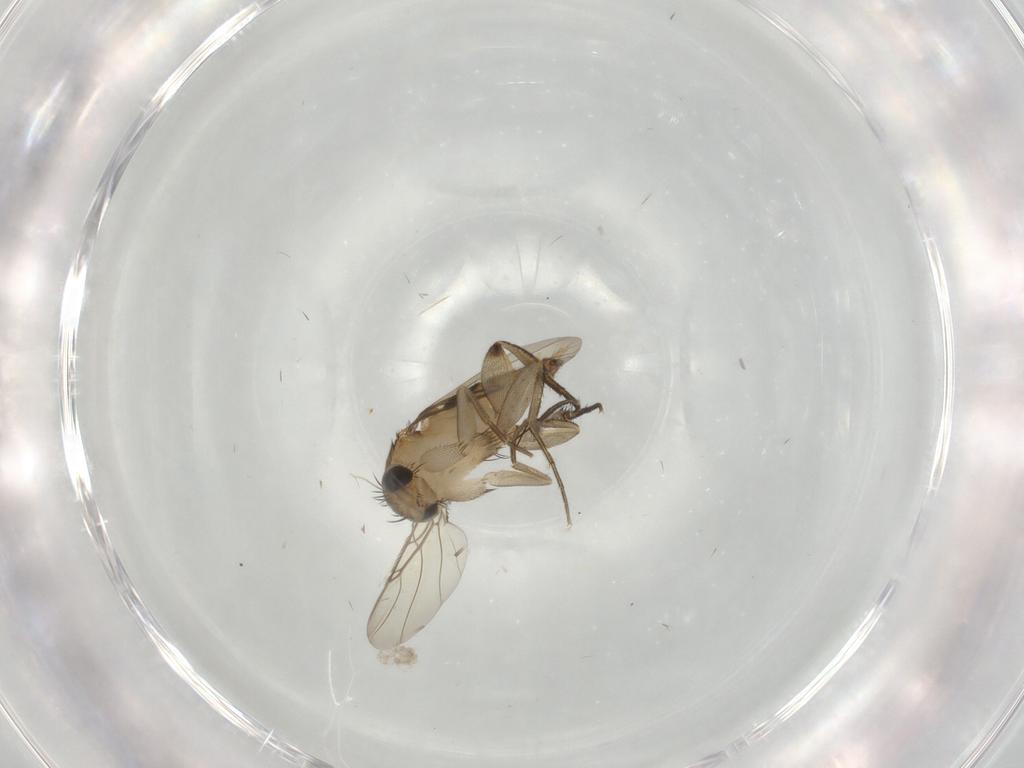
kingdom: Animalia
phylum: Arthropoda
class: Insecta
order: Diptera
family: Phoridae
